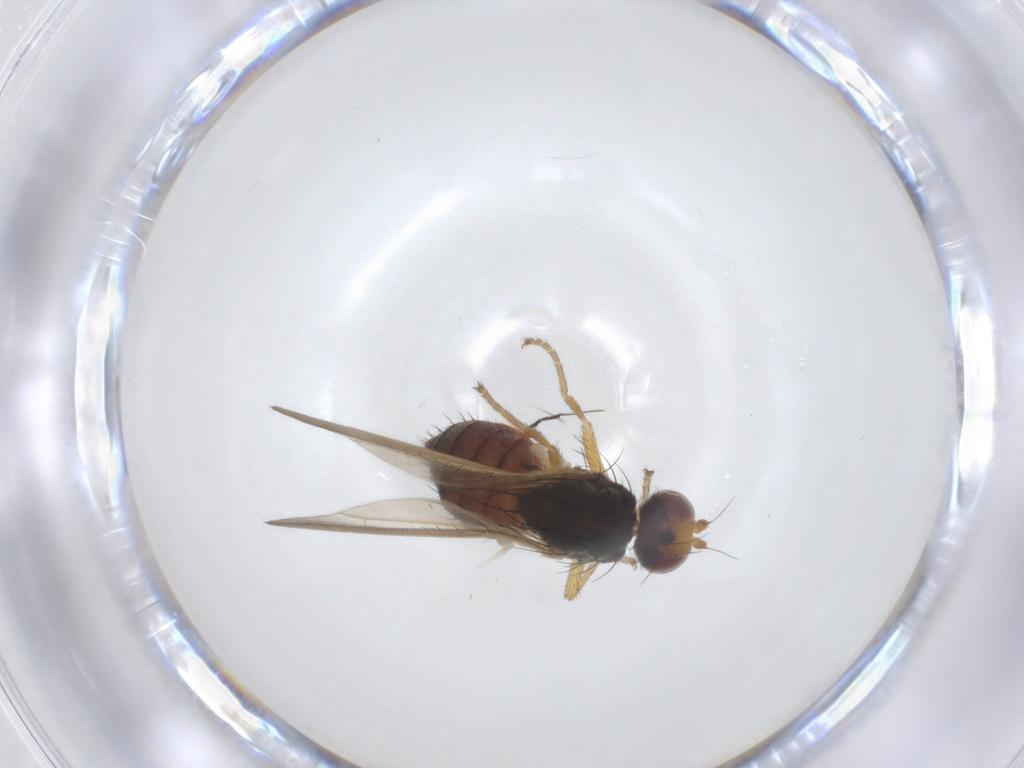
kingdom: Animalia
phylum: Arthropoda
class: Insecta
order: Diptera
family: Heleomyzidae
